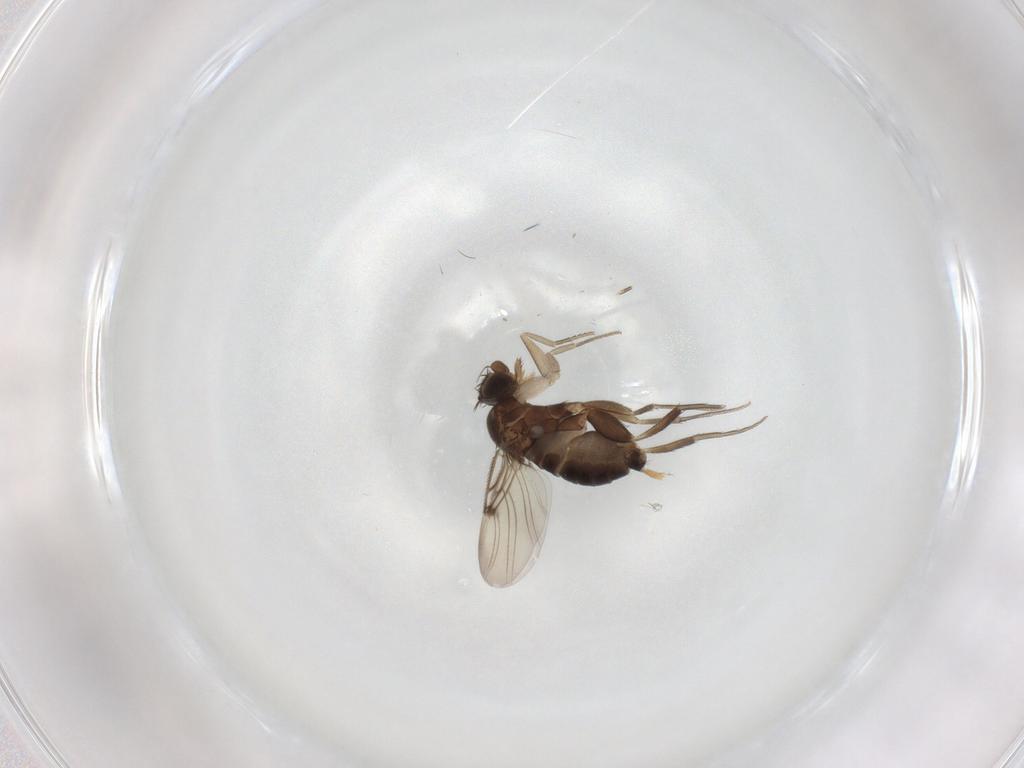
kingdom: Animalia
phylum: Arthropoda
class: Insecta
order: Diptera
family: Phoridae
